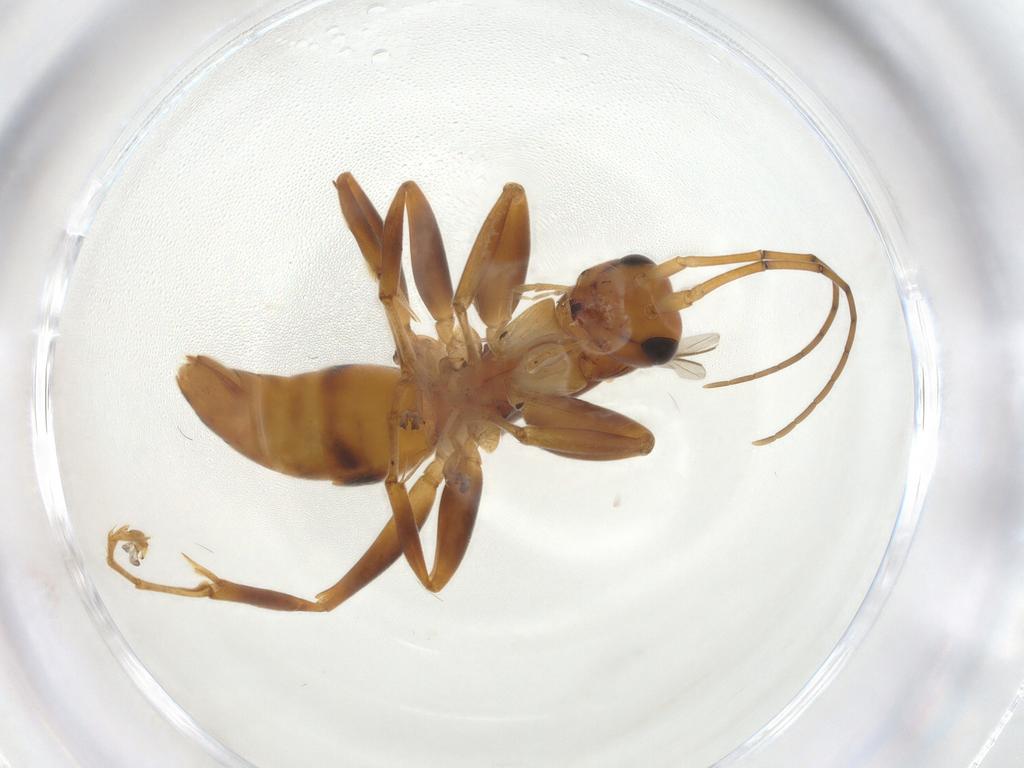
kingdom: Animalia
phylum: Arthropoda
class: Insecta
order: Hymenoptera
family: Rhopalosomatidae
